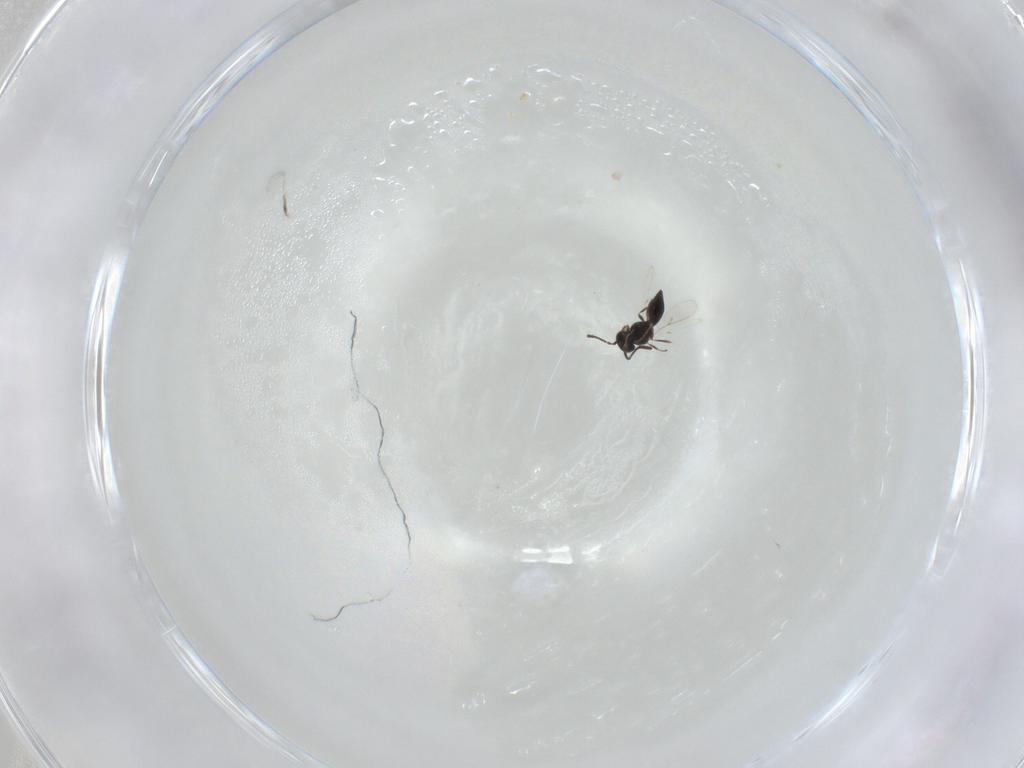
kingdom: Animalia
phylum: Arthropoda
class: Insecta
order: Hymenoptera
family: Scelionidae
